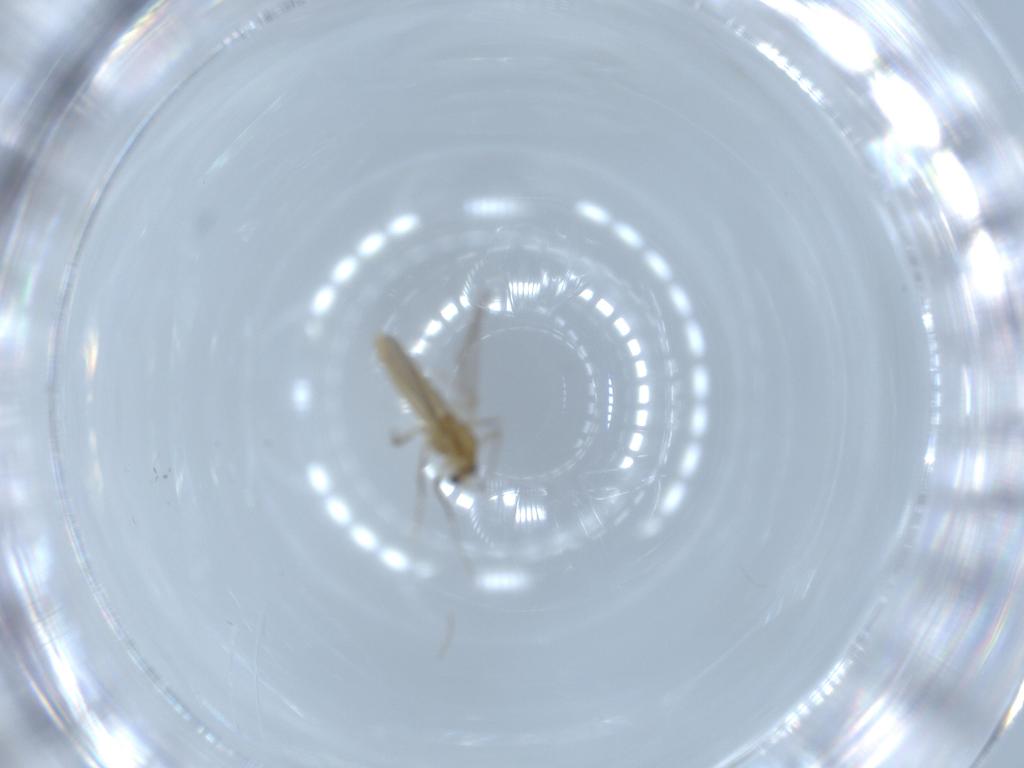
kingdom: Animalia
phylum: Arthropoda
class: Insecta
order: Diptera
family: Chironomidae
